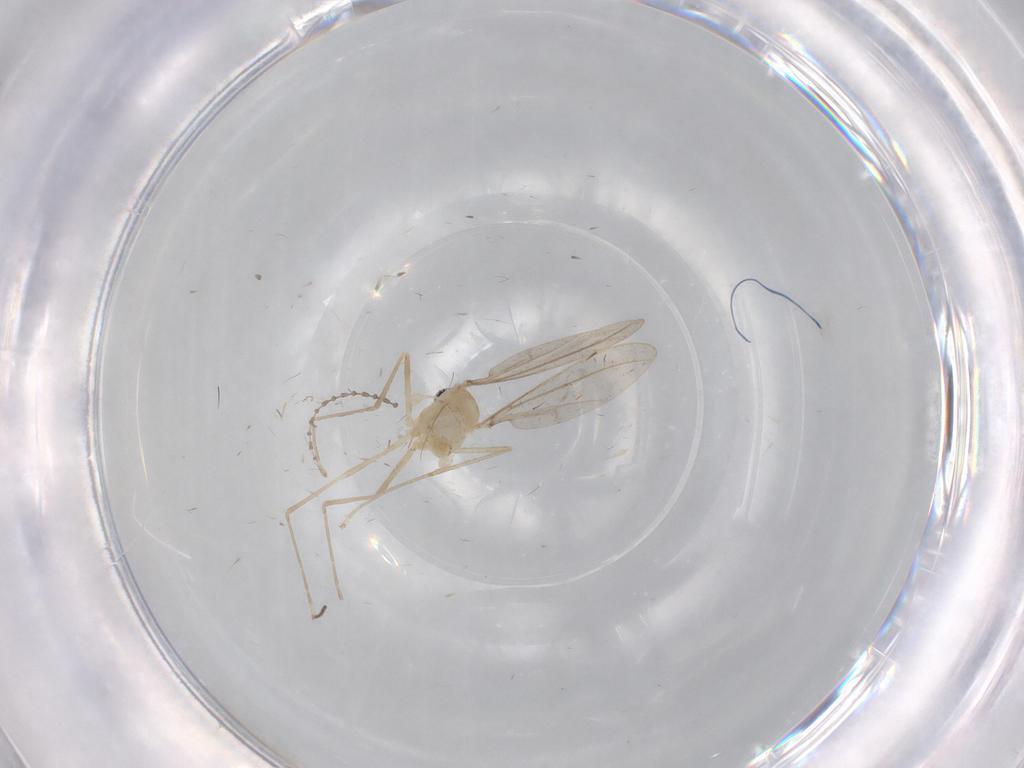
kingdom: Animalia
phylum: Arthropoda
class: Insecta
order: Diptera
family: Cecidomyiidae
